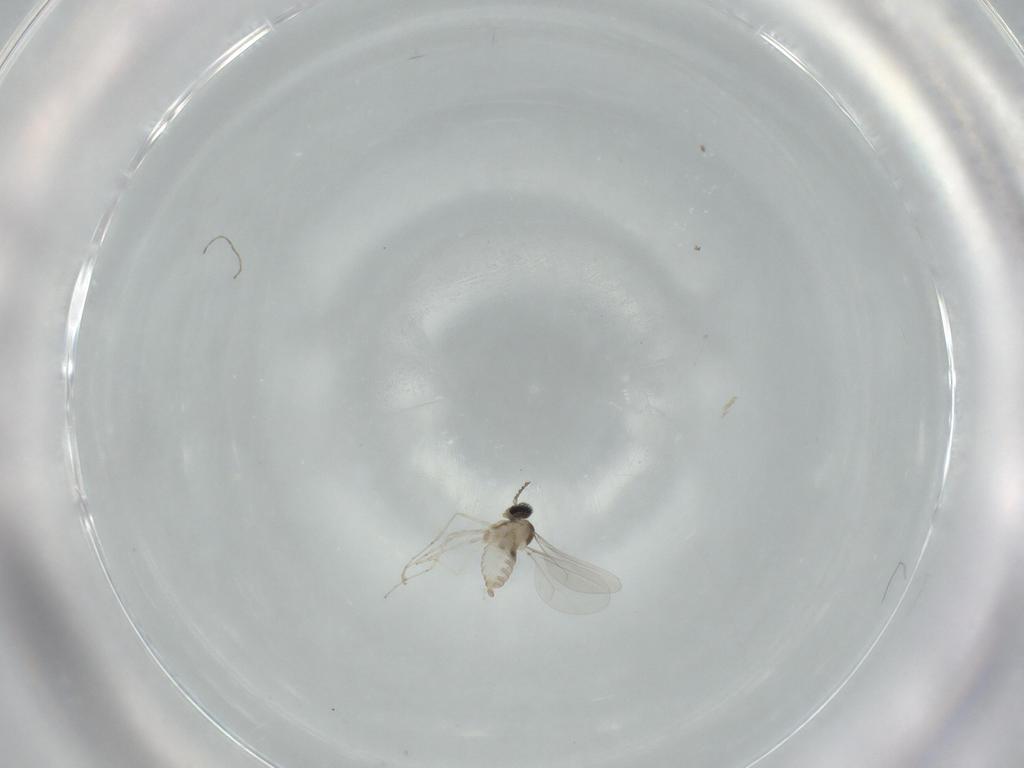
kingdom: Animalia
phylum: Arthropoda
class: Insecta
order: Diptera
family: Cecidomyiidae
